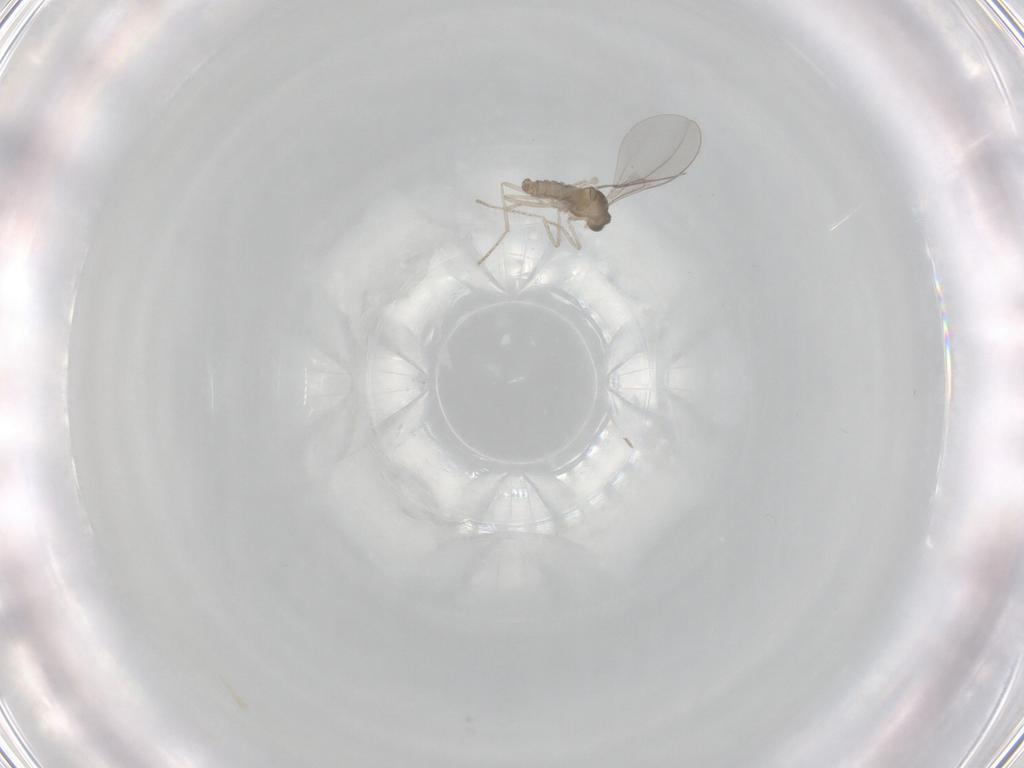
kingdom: Animalia
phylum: Arthropoda
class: Insecta
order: Diptera
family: Cecidomyiidae
